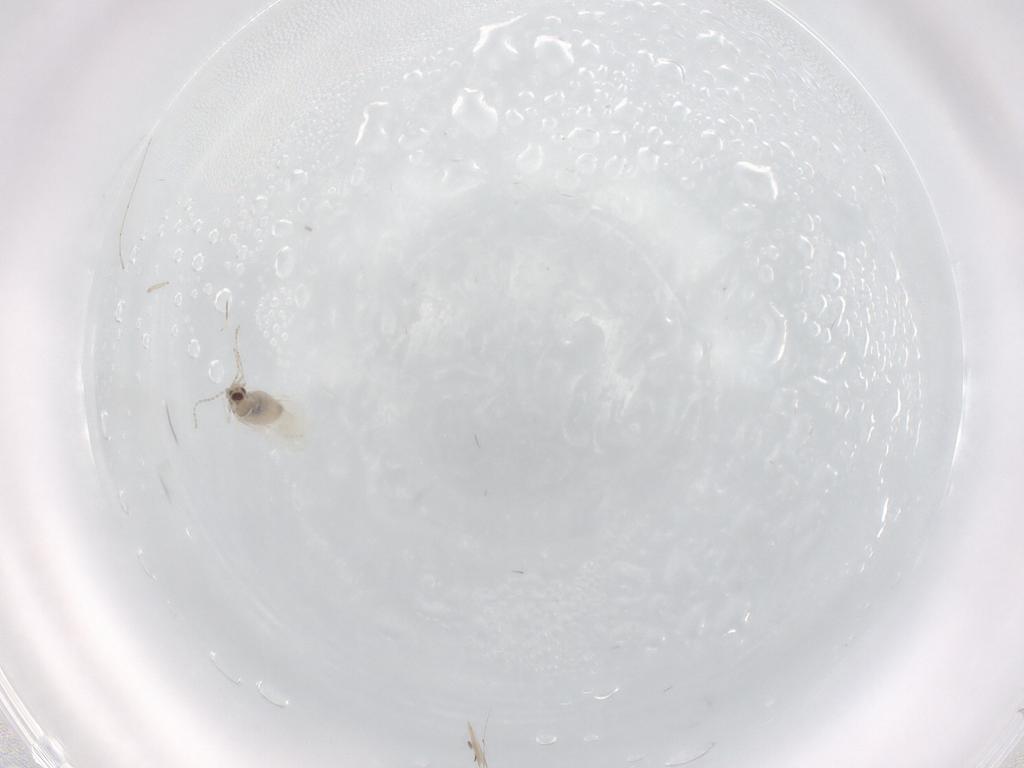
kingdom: Animalia
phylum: Arthropoda
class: Insecta
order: Diptera
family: Cecidomyiidae
